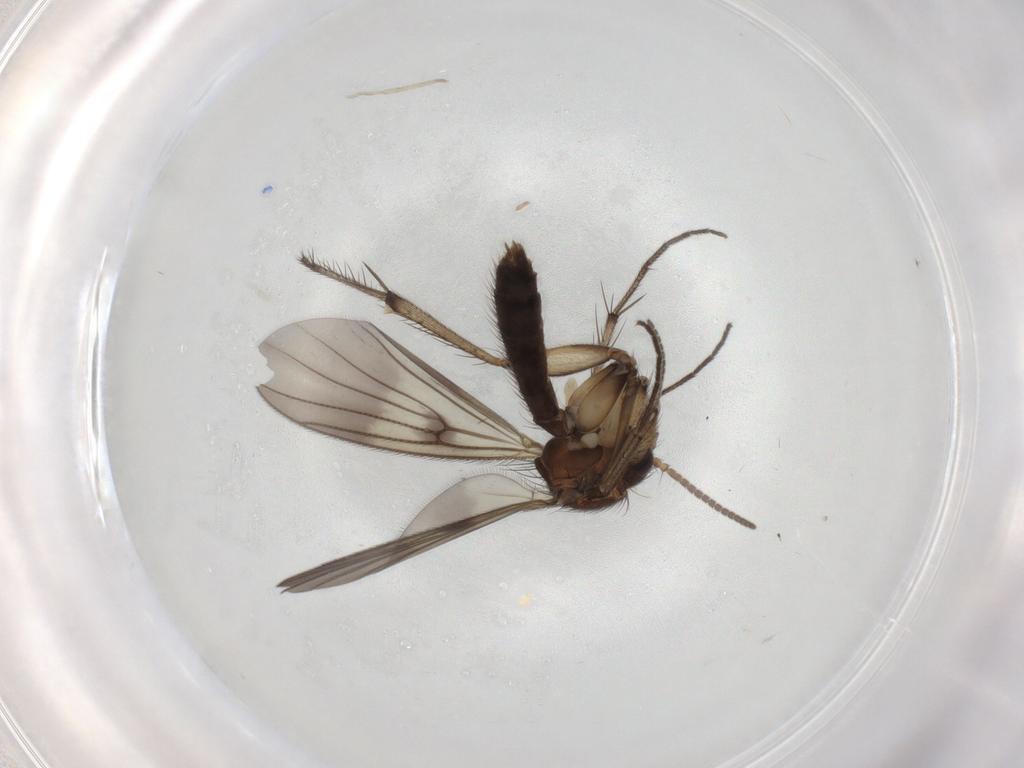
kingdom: Animalia
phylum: Arthropoda
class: Insecta
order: Diptera
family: Mycetophilidae
